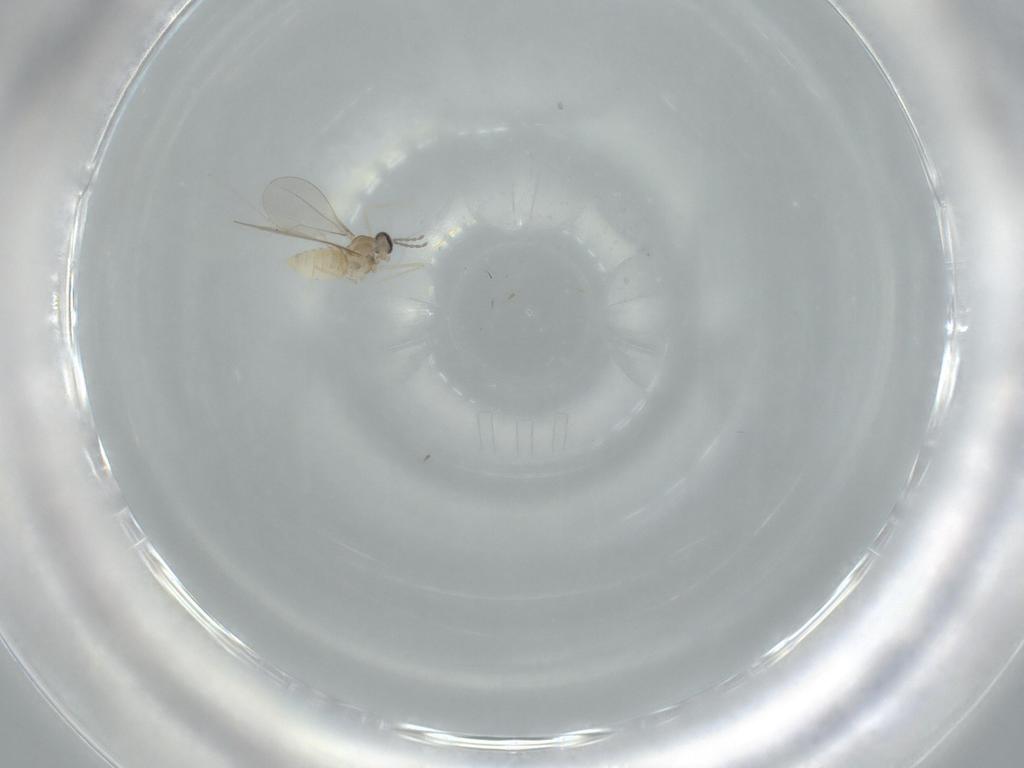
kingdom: Animalia
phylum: Arthropoda
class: Insecta
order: Diptera
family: Cecidomyiidae
